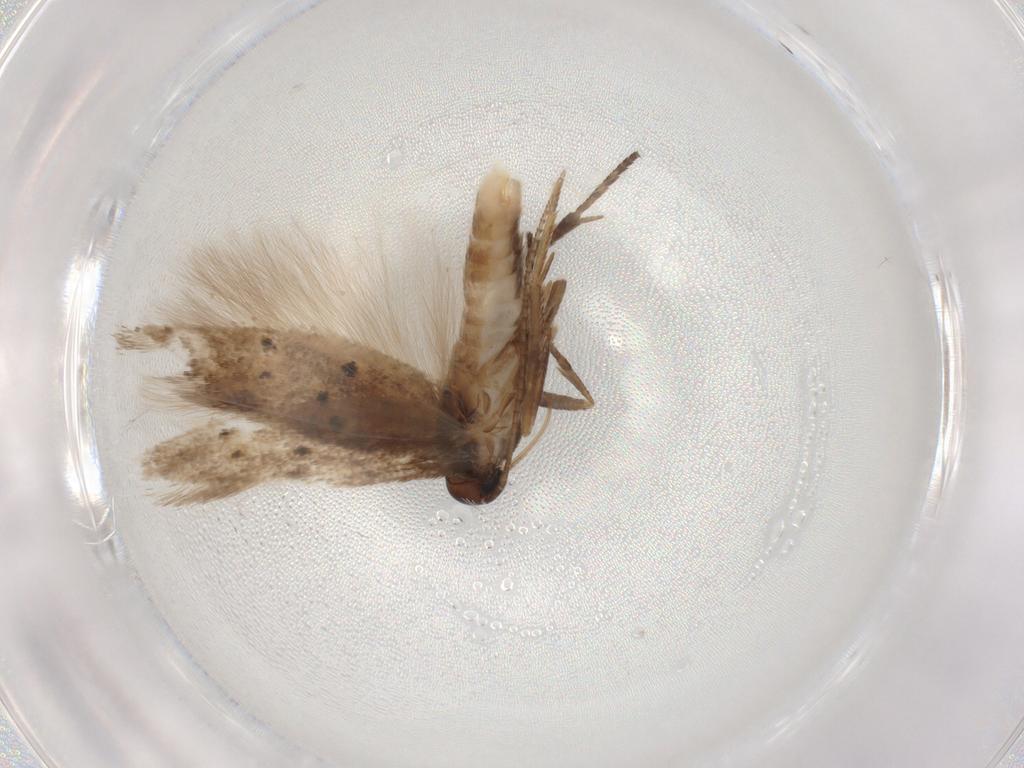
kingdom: Animalia
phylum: Arthropoda
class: Insecta
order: Lepidoptera
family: Gelechiidae
